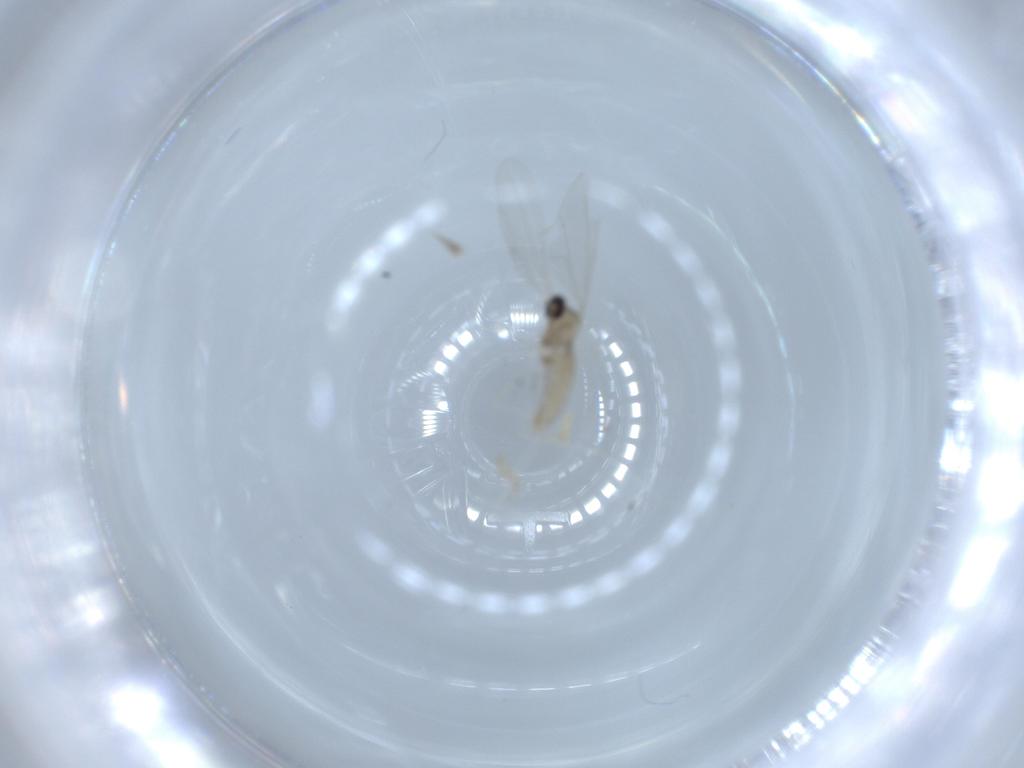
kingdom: Animalia
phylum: Arthropoda
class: Insecta
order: Diptera
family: Cecidomyiidae
